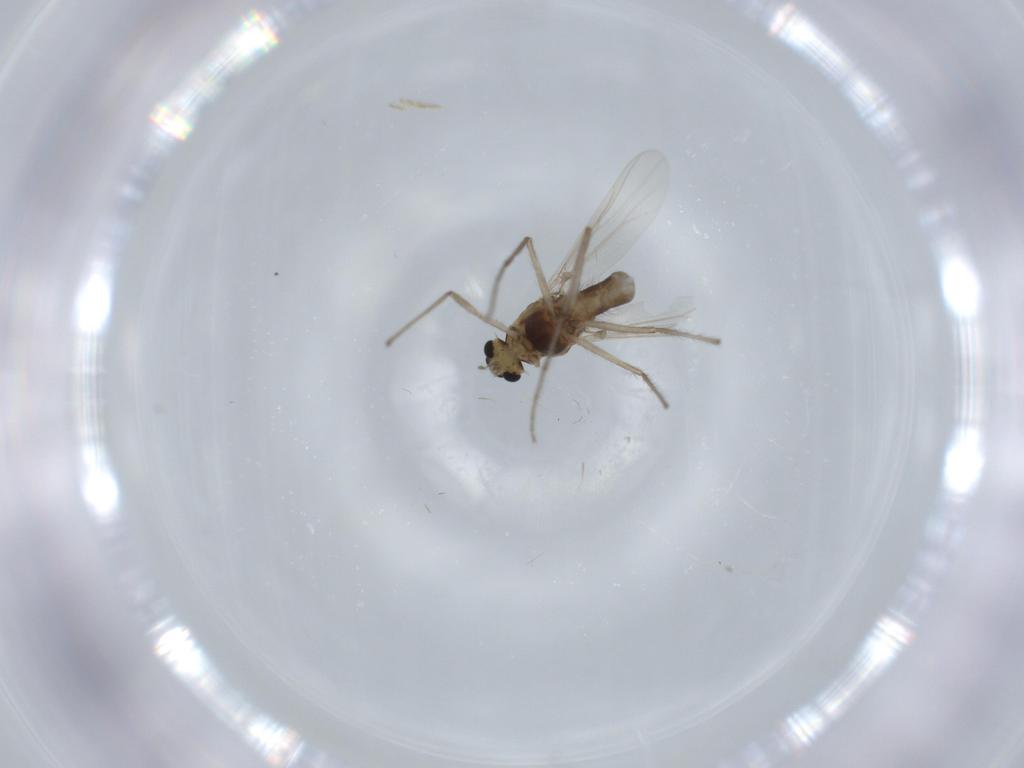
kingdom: Animalia
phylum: Arthropoda
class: Insecta
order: Diptera
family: Chironomidae
